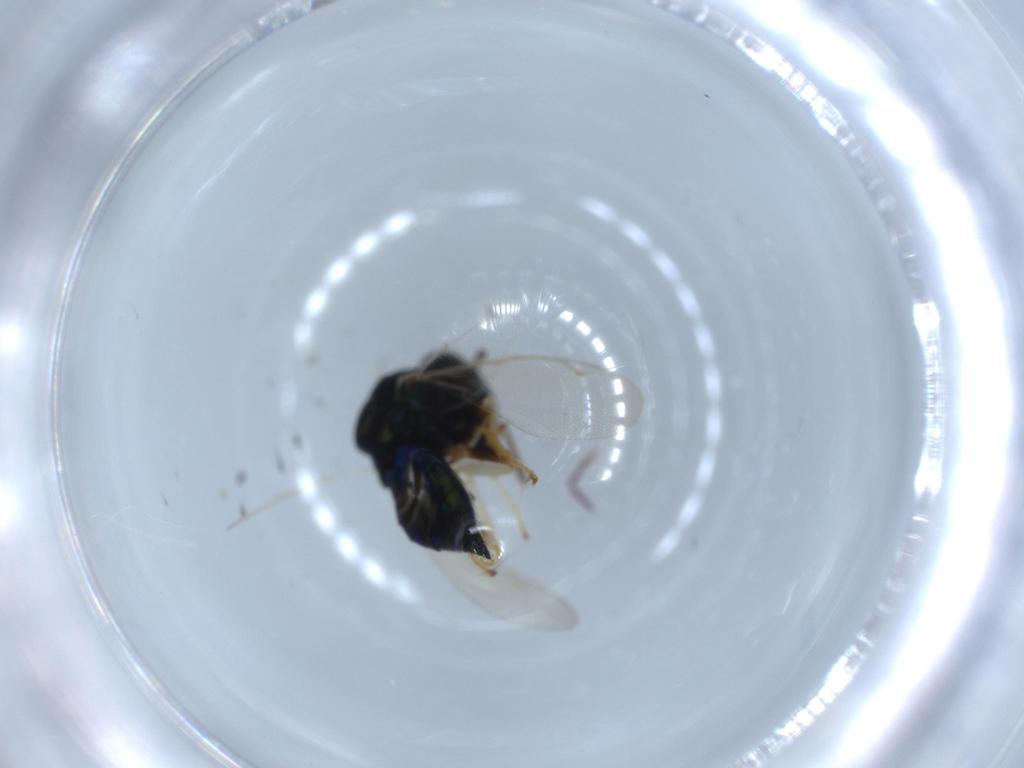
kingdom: Animalia
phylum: Arthropoda
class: Insecta
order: Hymenoptera
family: Pteromalidae
